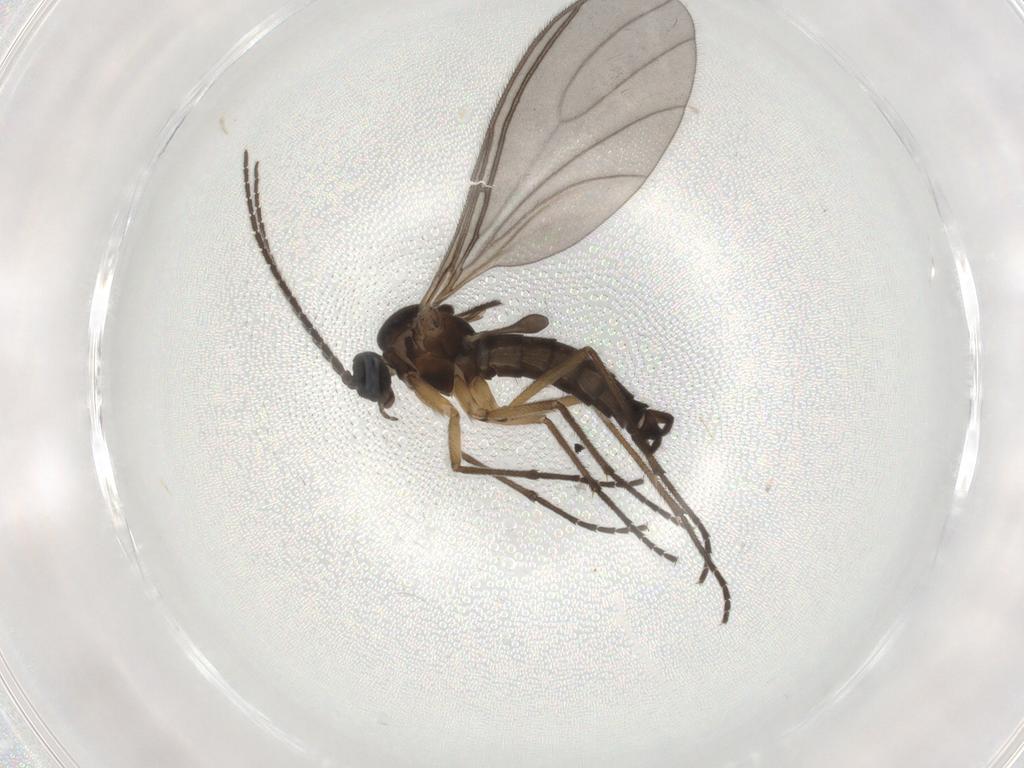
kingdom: Animalia
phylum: Arthropoda
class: Insecta
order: Diptera
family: Sciaridae
